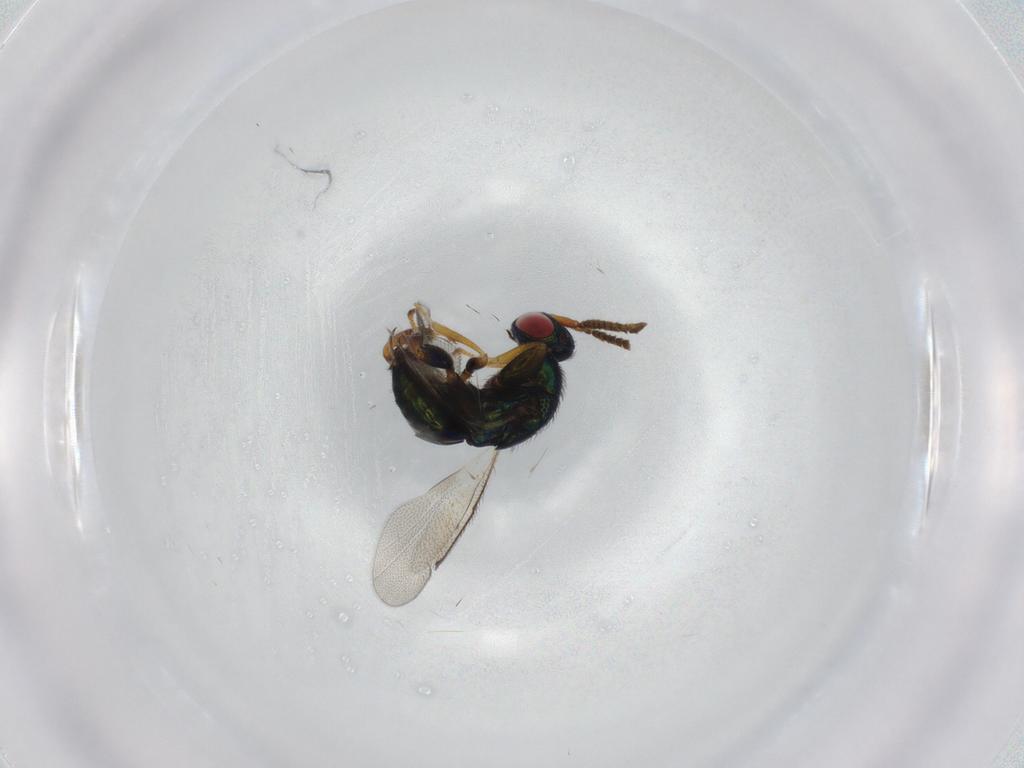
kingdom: Animalia
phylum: Arthropoda
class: Insecta
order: Hymenoptera
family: Torymidae
